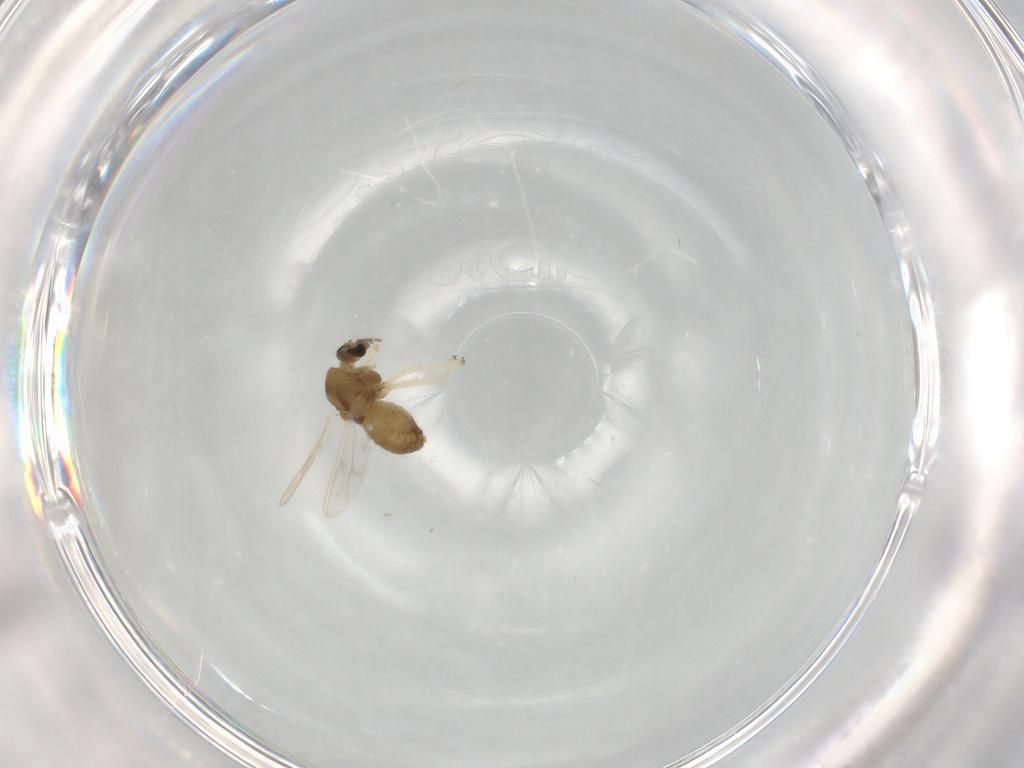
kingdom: Animalia
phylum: Arthropoda
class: Insecta
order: Diptera
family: Chironomidae
